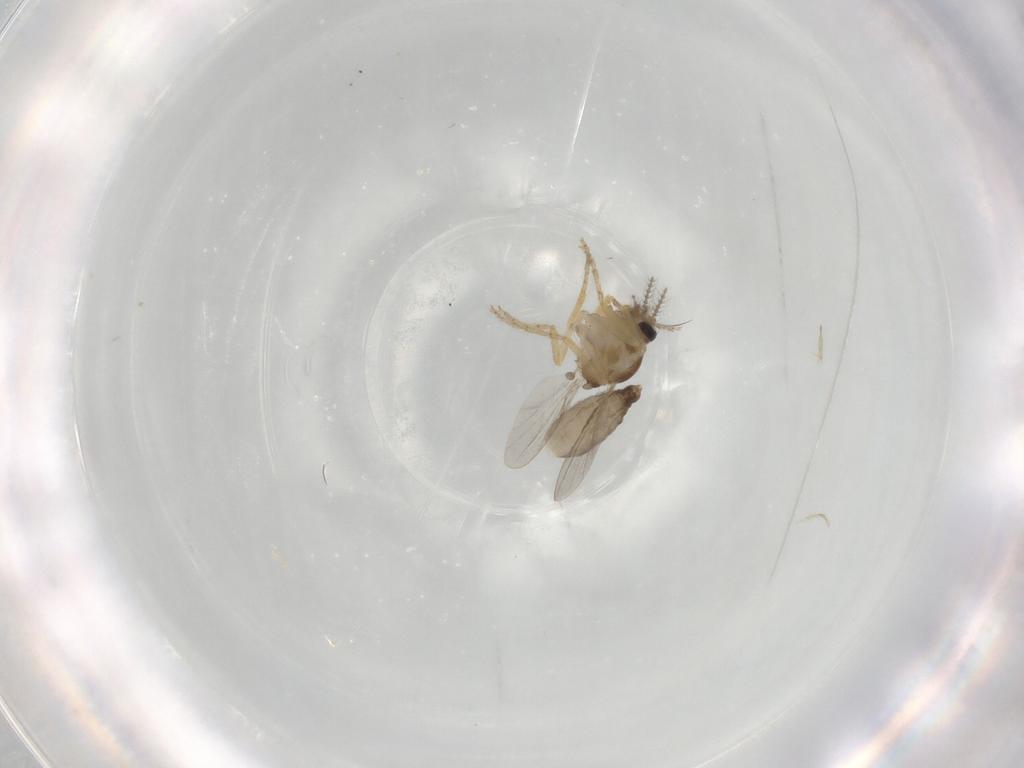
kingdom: Animalia
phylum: Arthropoda
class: Insecta
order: Diptera
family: Ceratopogonidae
